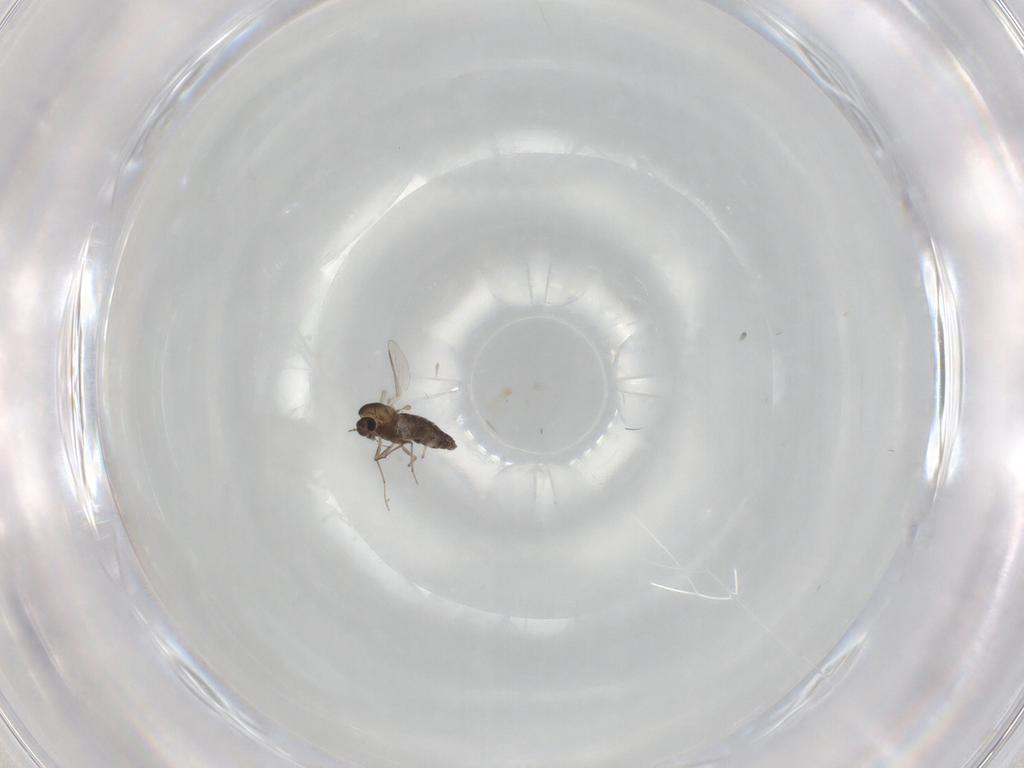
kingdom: Animalia
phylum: Arthropoda
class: Insecta
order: Diptera
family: Chironomidae
